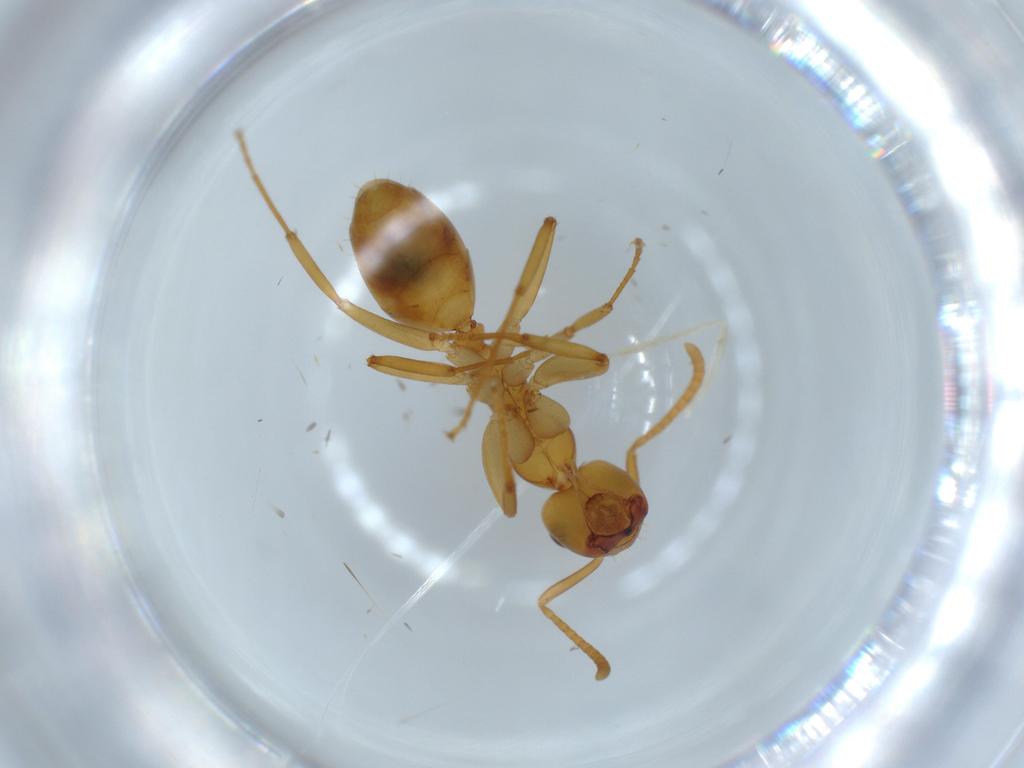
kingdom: Animalia
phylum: Arthropoda
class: Insecta
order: Hymenoptera
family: Formicidae
